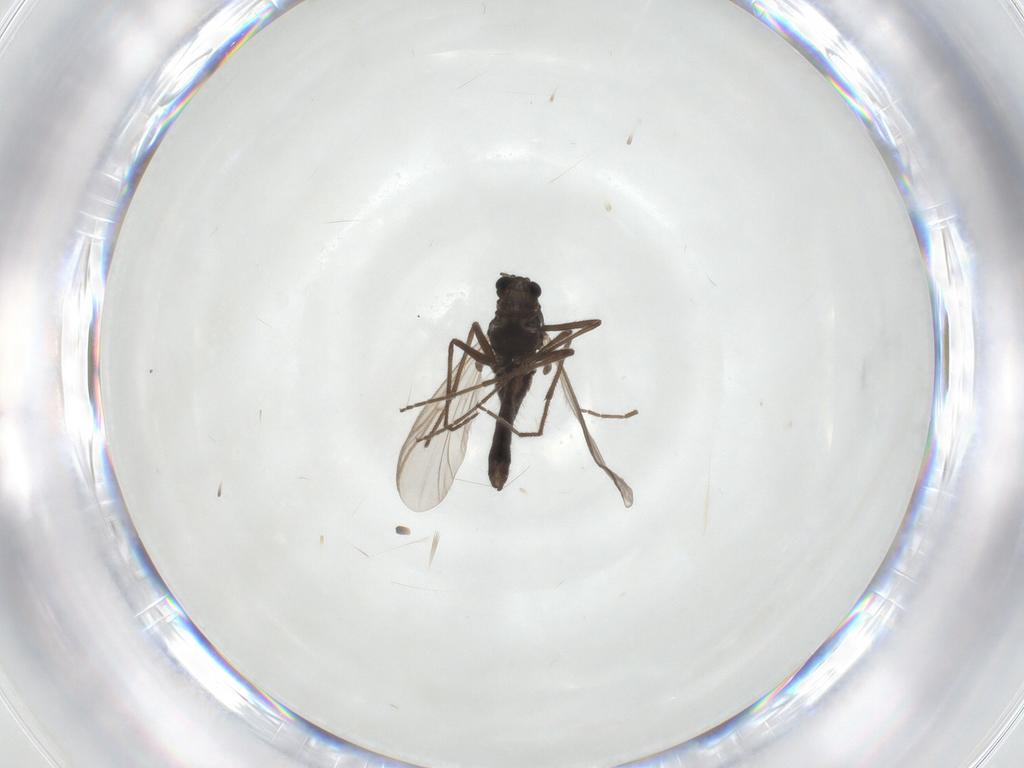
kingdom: Animalia
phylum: Arthropoda
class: Insecta
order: Diptera
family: Chironomidae
